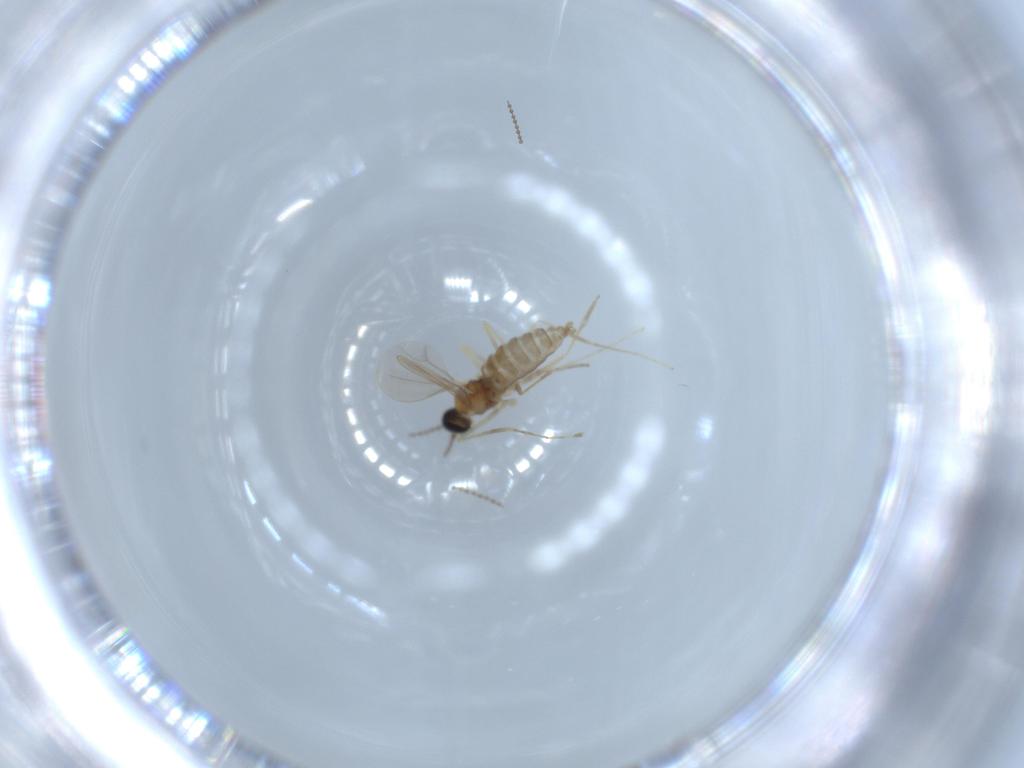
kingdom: Animalia
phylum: Arthropoda
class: Insecta
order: Diptera
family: Cecidomyiidae
